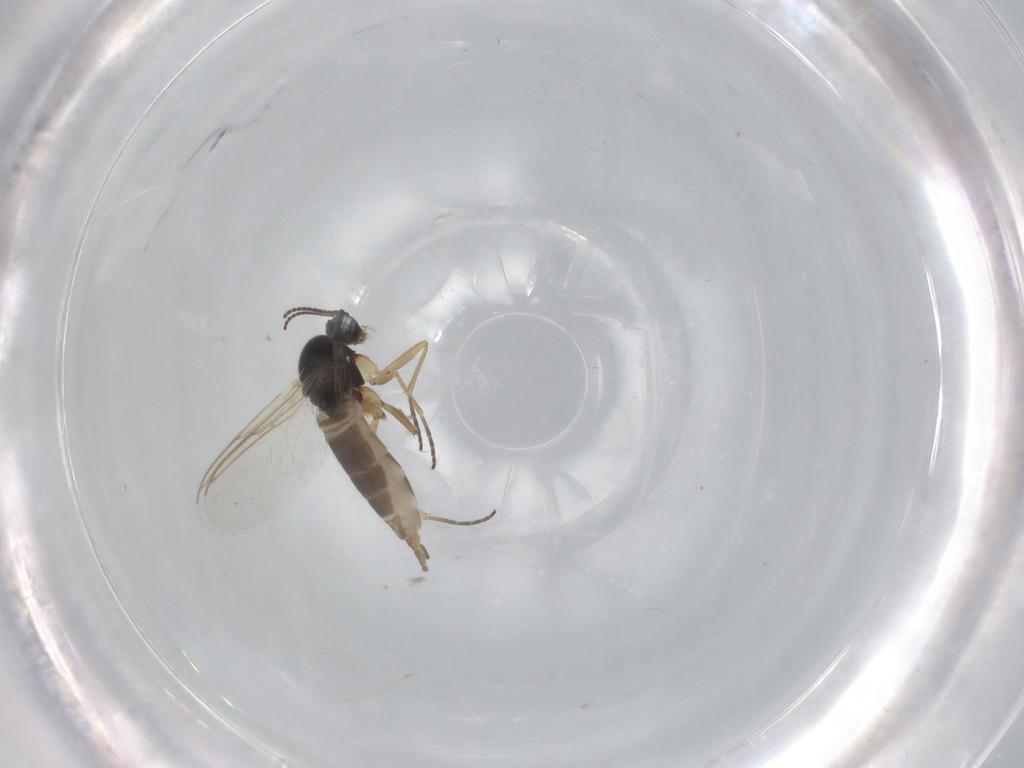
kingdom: Animalia
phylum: Arthropoda
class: Insecta
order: Diptera
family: Sciaridae
